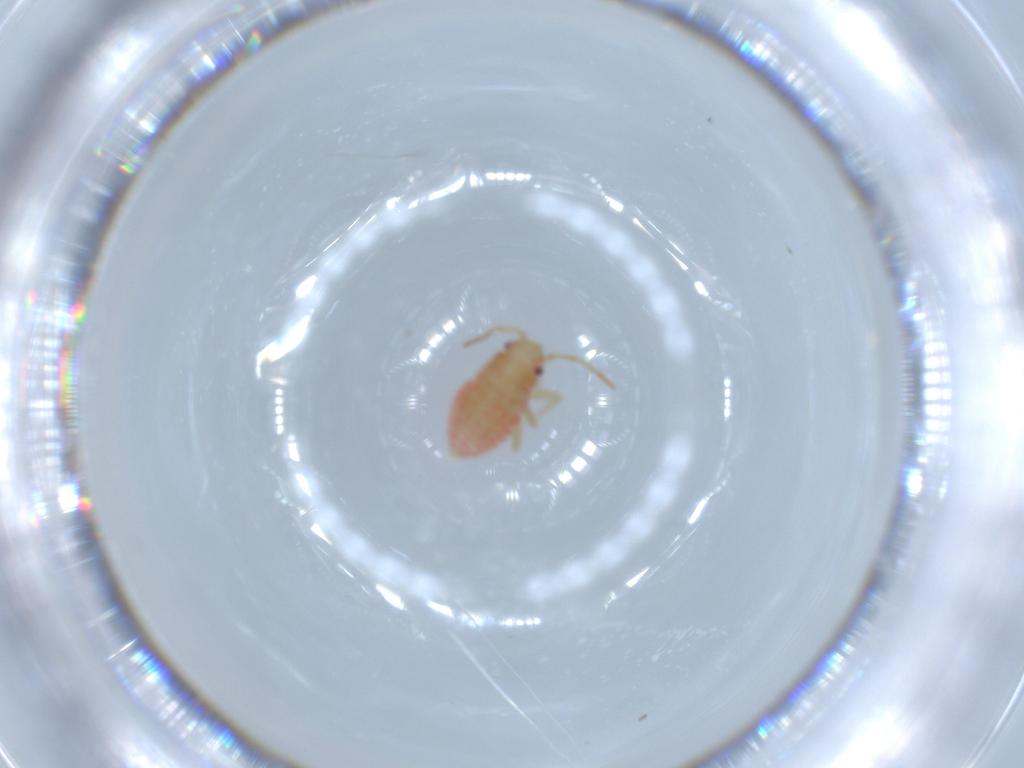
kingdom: Animalia
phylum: Arthropoda
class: Insecta
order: Hemiptera
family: Miridae
